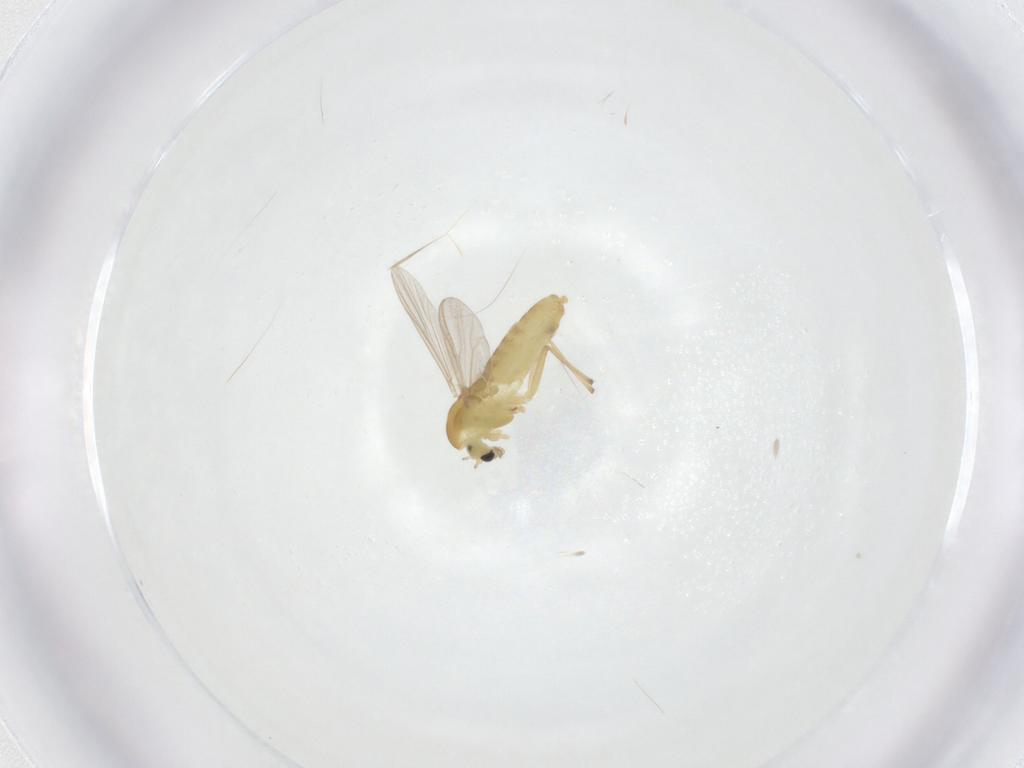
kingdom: Animalia
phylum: Arthropoda
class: Insecta
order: Diptera
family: Chironomidae
